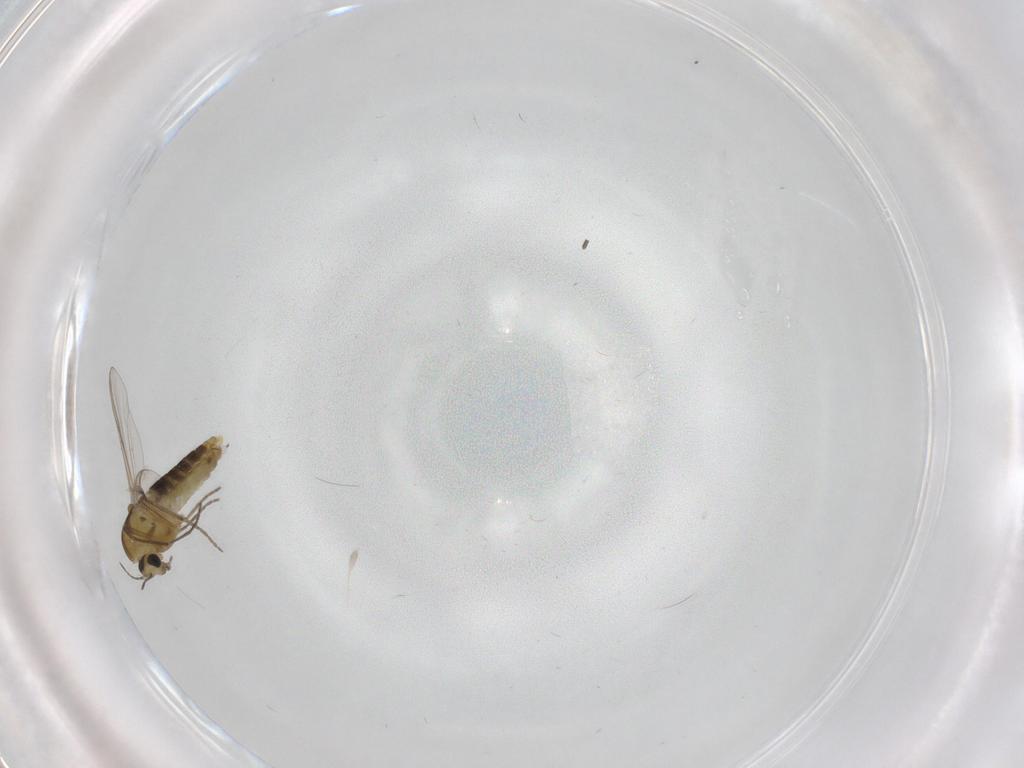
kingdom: Animalia
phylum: Arthropoda
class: Insecta
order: Diptera
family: Chironomidae
